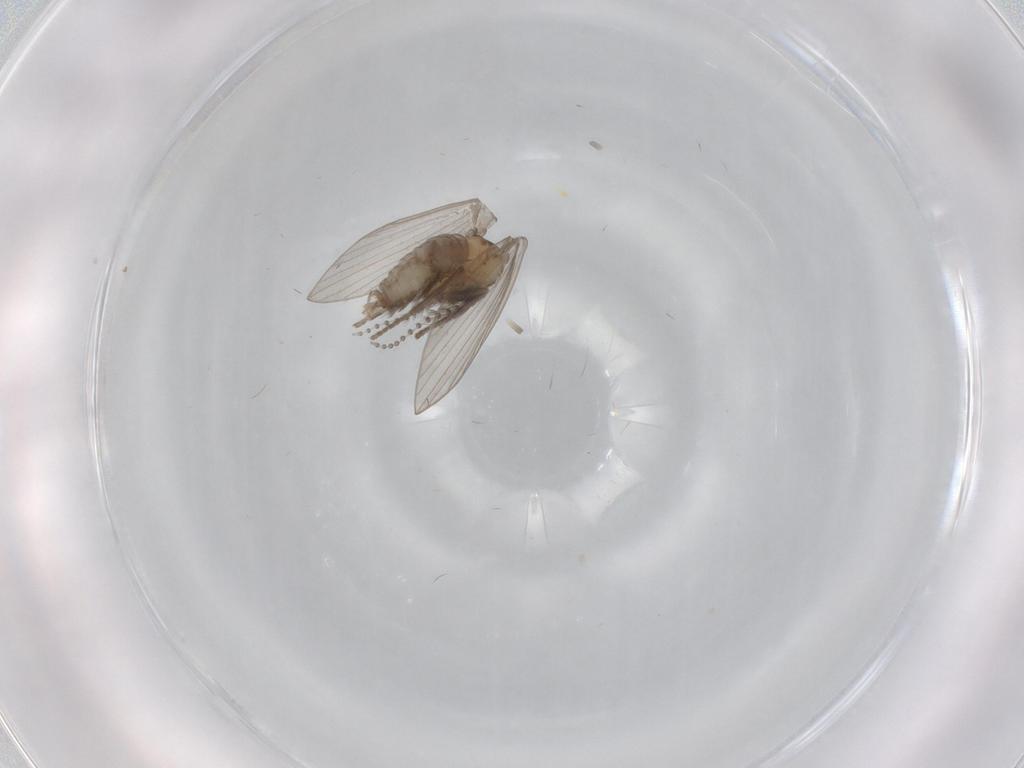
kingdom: Animalia
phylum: Arthropoda
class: Insecta
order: Diptera
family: Psychodidae
